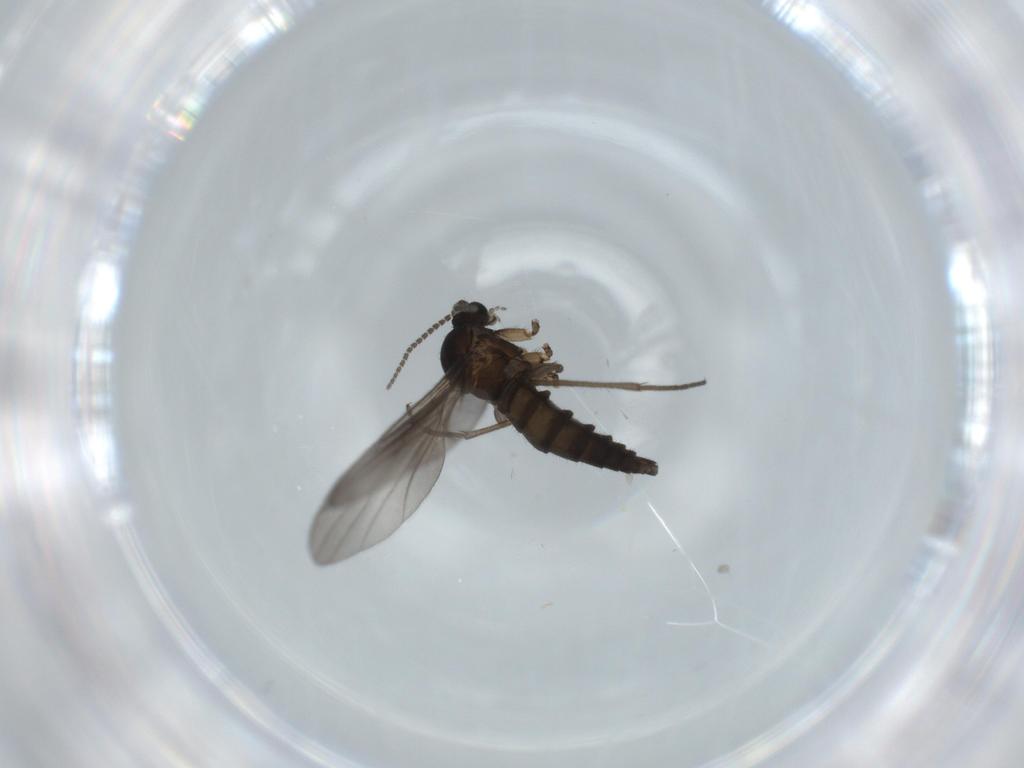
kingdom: Animalia
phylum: Arthropoda
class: Insecta
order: Diptera
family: Sciaridae
